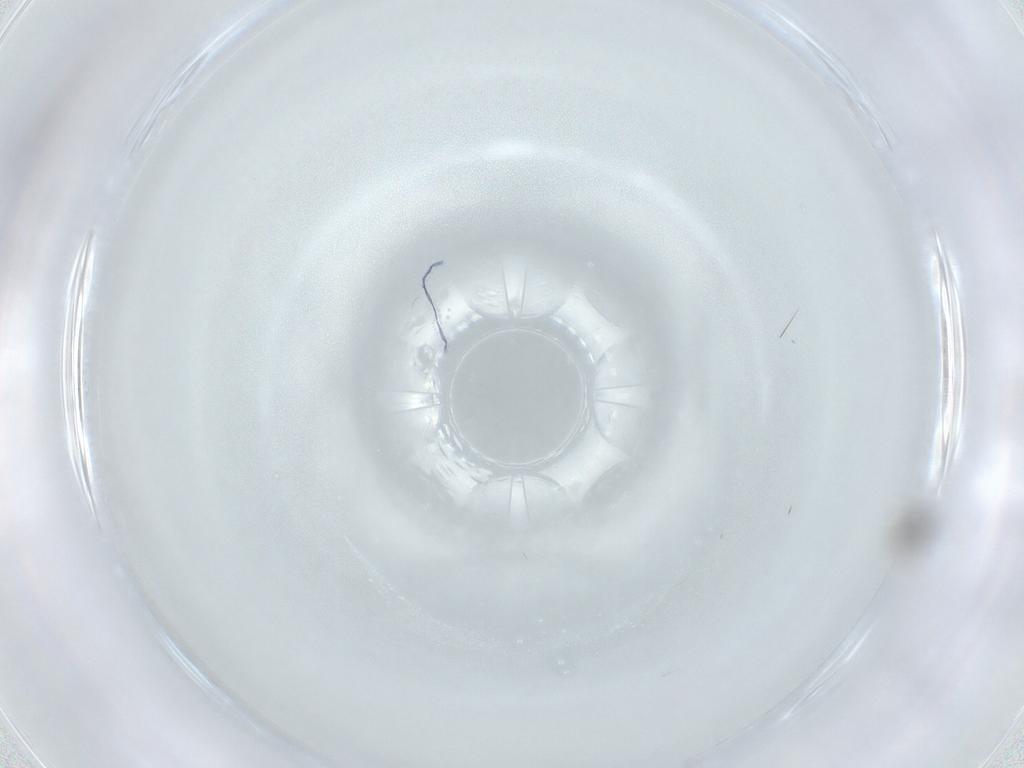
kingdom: Animalia
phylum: Arthropoda
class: Insecta
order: Diptera
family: Cecidomyiidae
